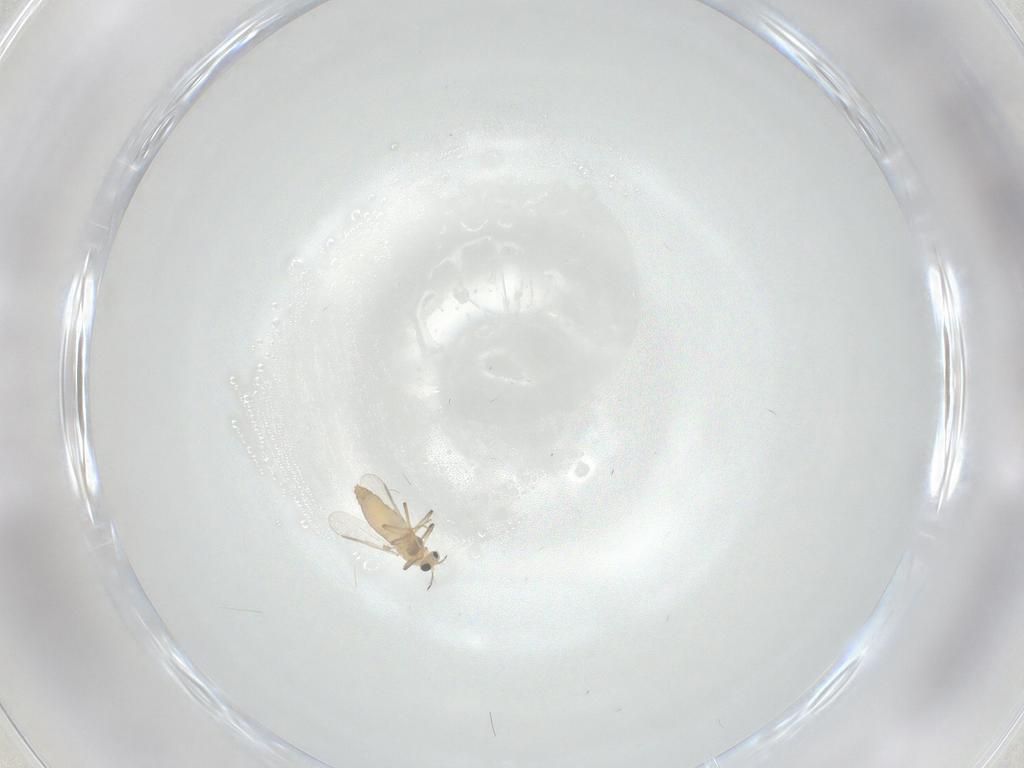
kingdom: Animalia
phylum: Arthropoda
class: Insecta
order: Diptera
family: Chironomidae
